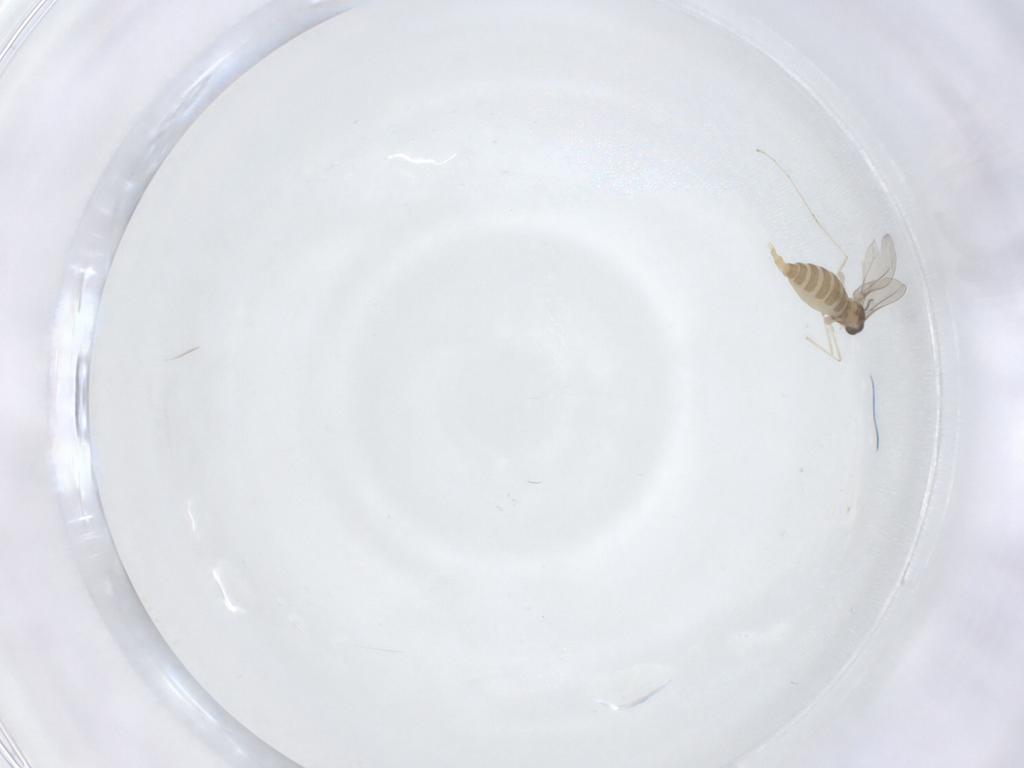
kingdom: Animalia
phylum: Arthropoda
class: Insecta
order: Diptera
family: Cecidomyiidae
